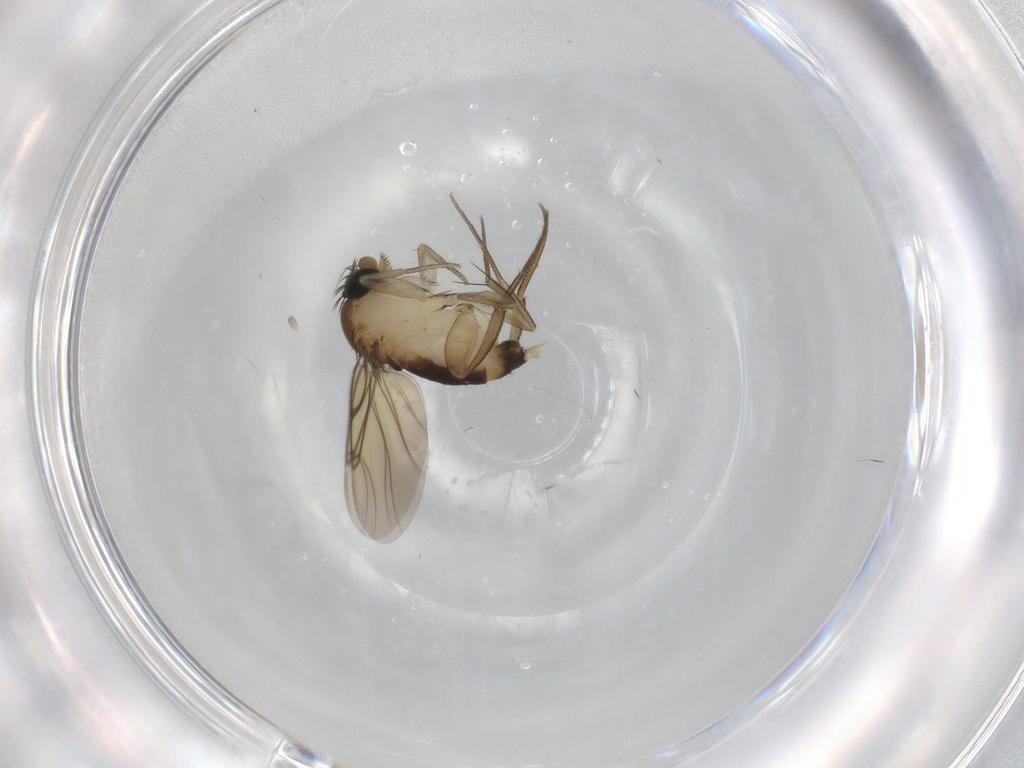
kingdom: Animalia
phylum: Arthropoda
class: Insecta
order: Diptera
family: Phoridae
